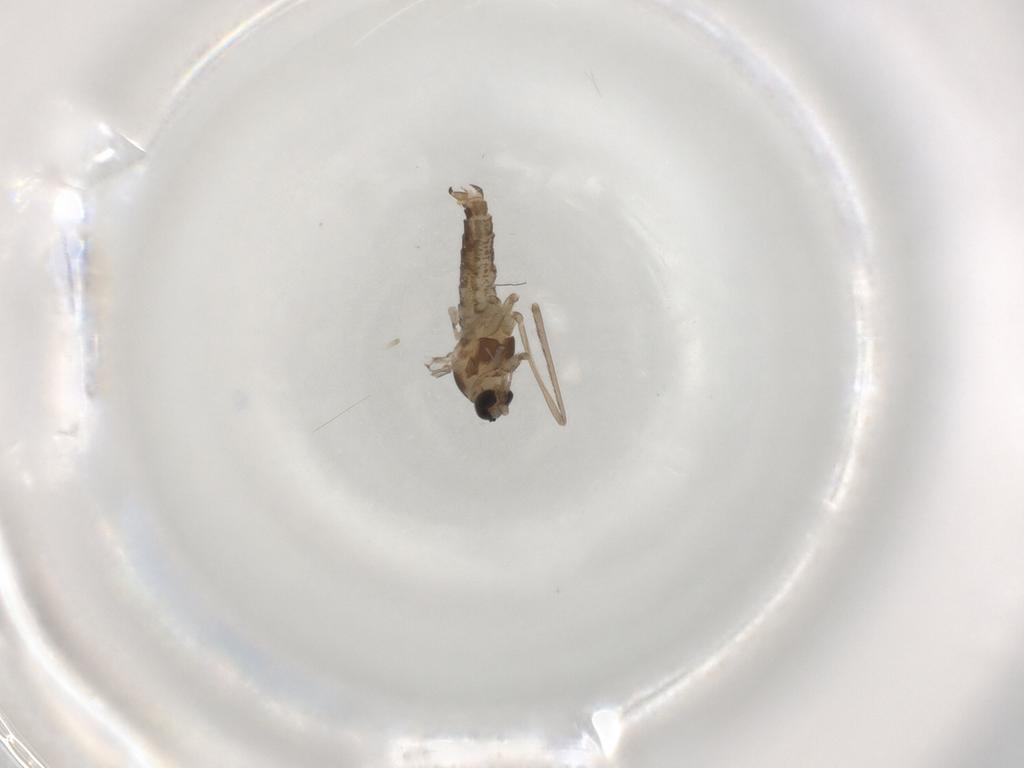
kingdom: Animalia
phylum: Arthropoda
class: Insecta
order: Diptera
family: Cecidomyiidae
